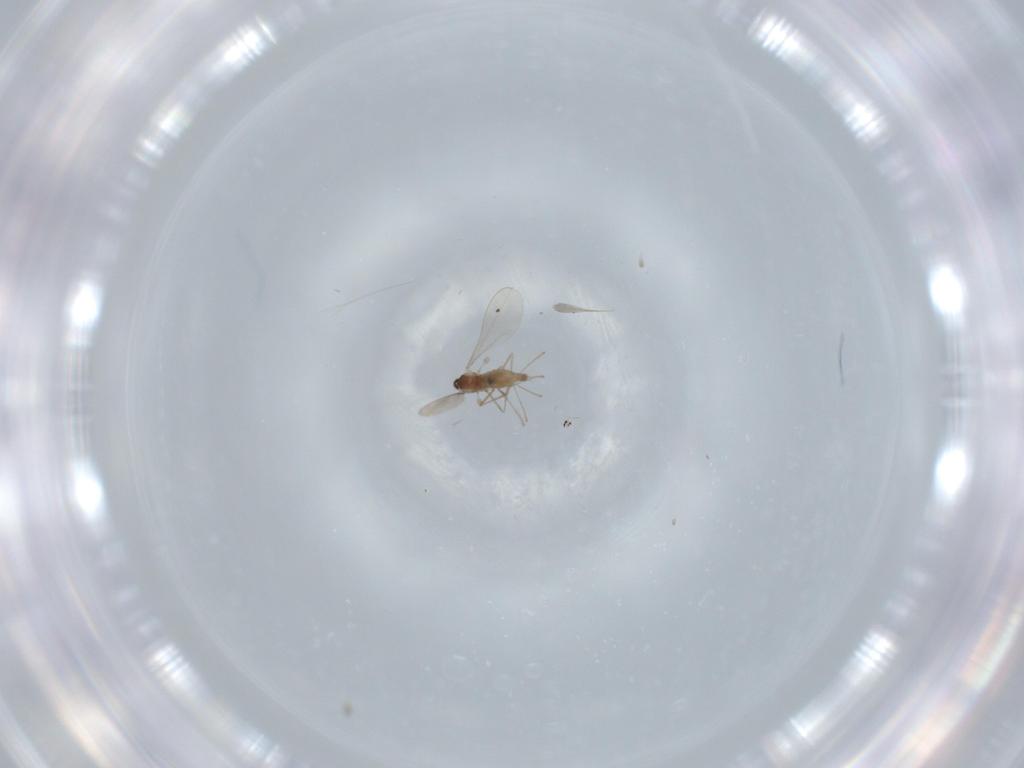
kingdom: Animalia
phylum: Arthropoda
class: Insecta
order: Diptera
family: Cecidomyiidae
